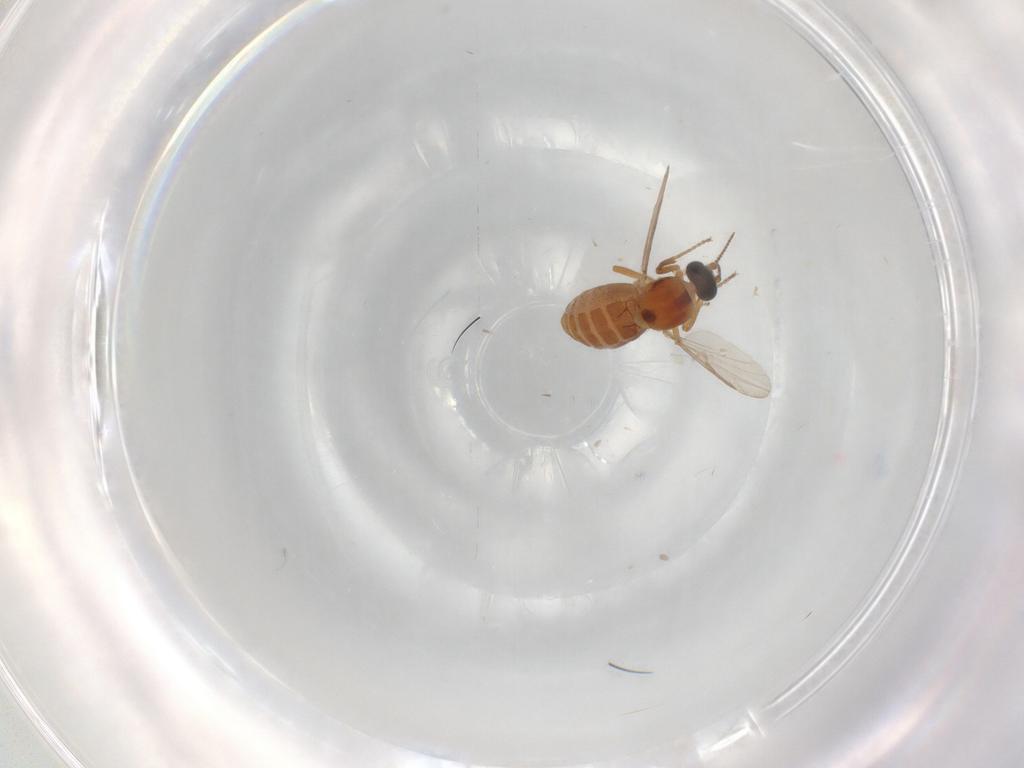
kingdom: Animalia
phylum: Arthropoda
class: Insecta
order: Diptera
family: Ceratopogonidae
